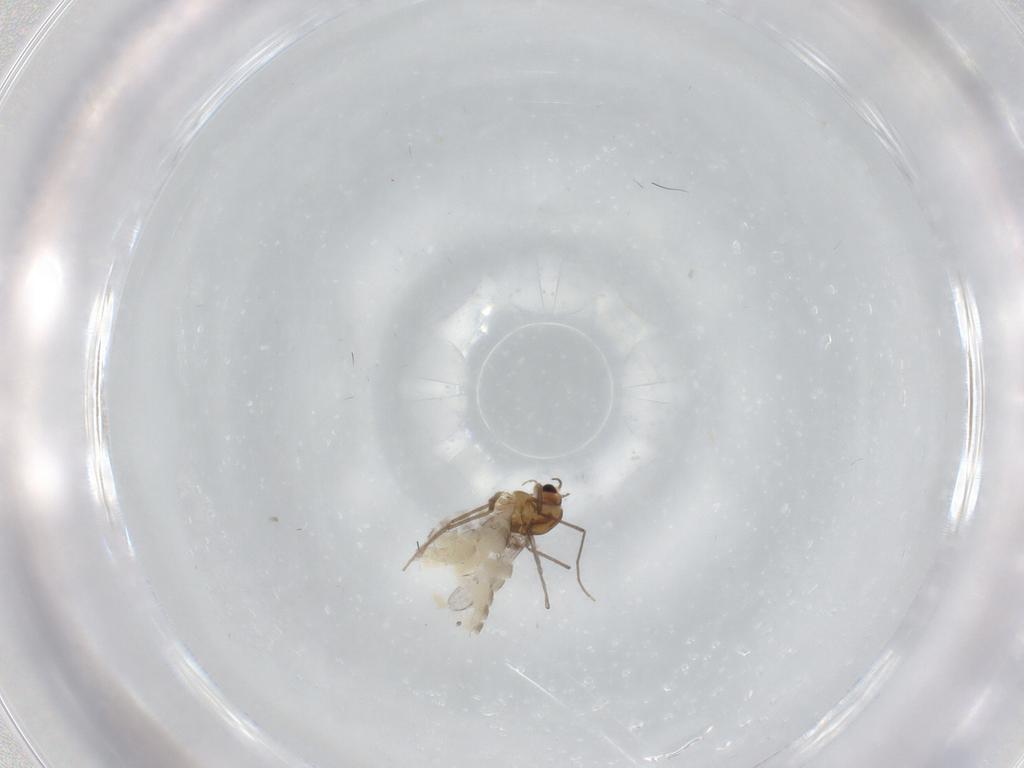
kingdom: Animalia
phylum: Arthropoda
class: Insecta
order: Diptera
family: Chironomidae
